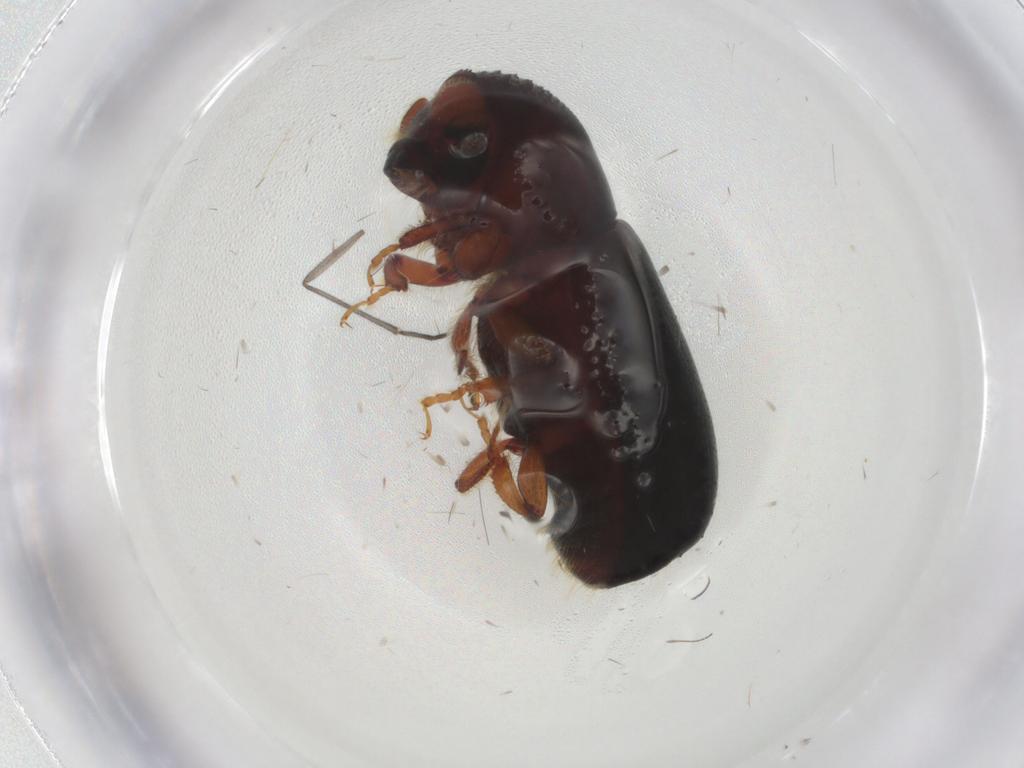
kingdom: Animalia
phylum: Arthropoda
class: Insecta
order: Coleoptera
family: Curculionidae
